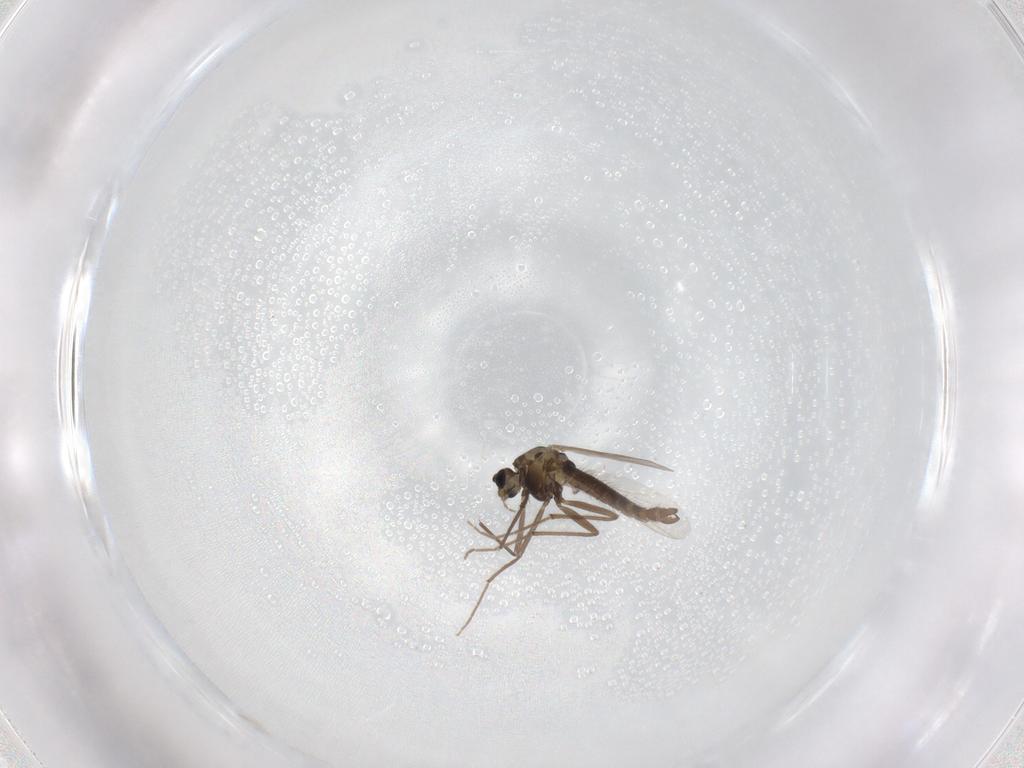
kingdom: Animalia
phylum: Arthropoda
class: Insecta
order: Diptera
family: Chironomidae
